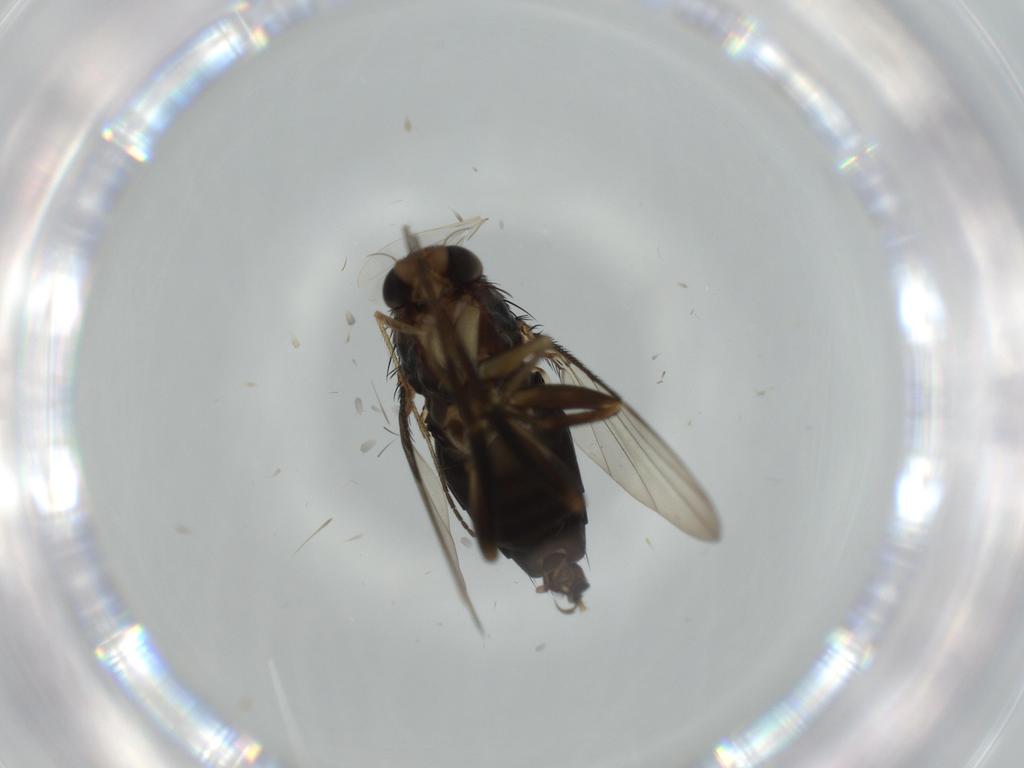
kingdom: Animalia
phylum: Arthropoda
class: Insecta
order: Diptera
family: Phoridae
